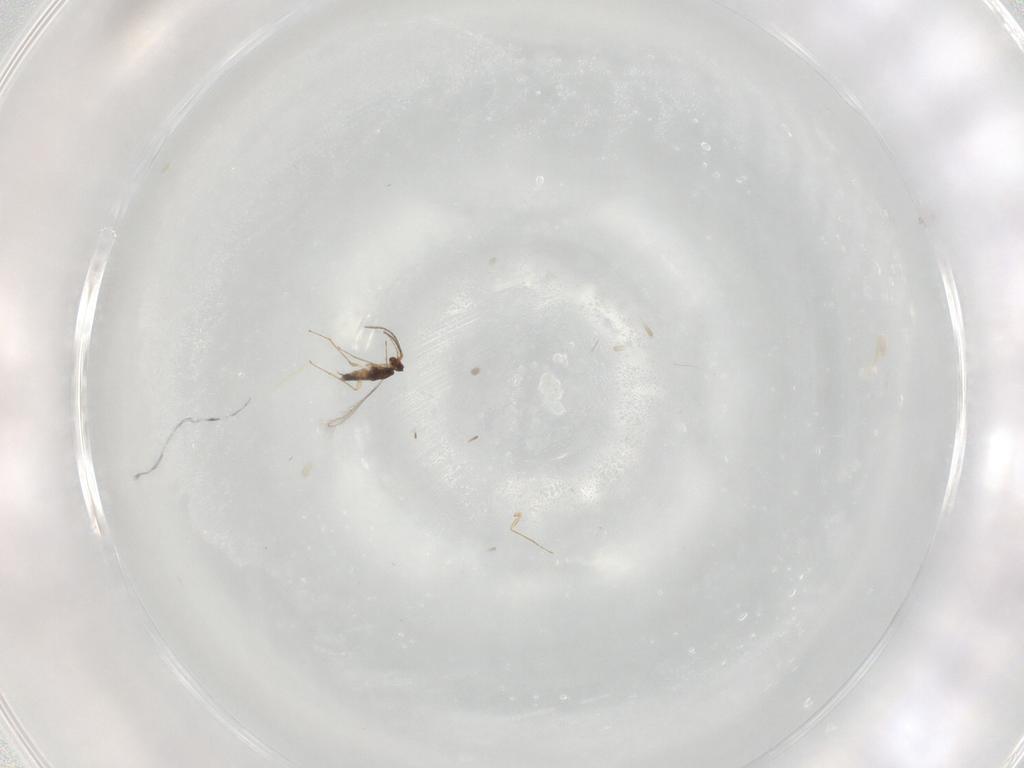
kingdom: Animalia
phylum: Arthropoda
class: Insecta
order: Hymenoptera
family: Mymaridae
